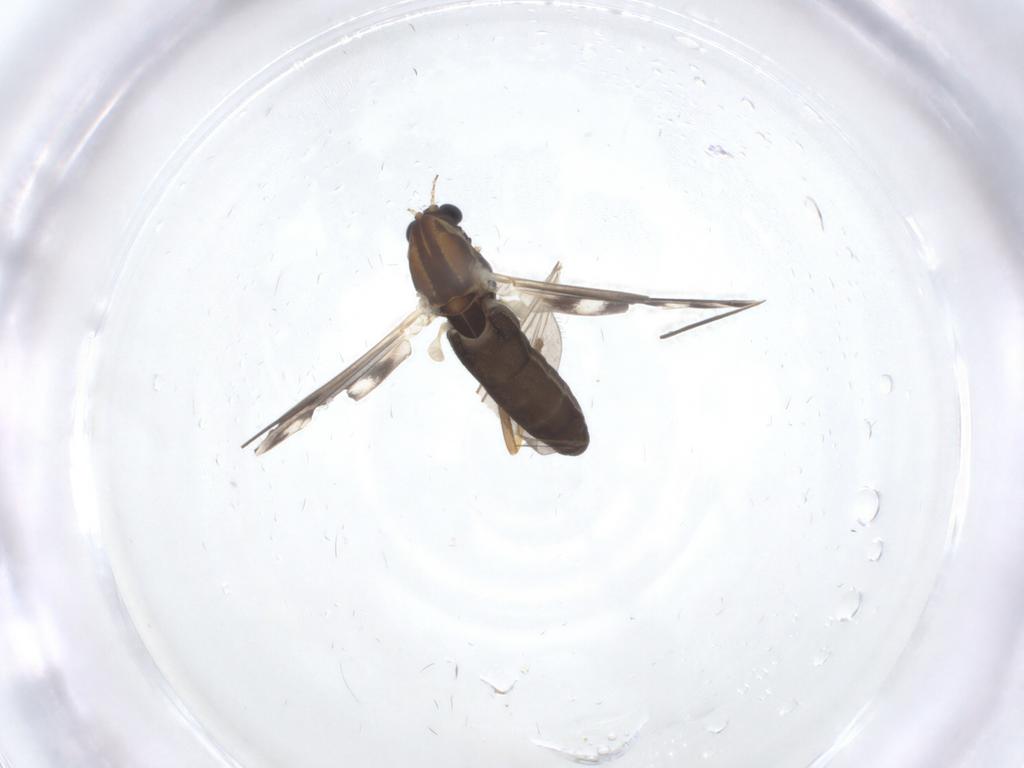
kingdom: Animalia
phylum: Arthropoda
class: Insecta
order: Diptera
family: Chironomidae
